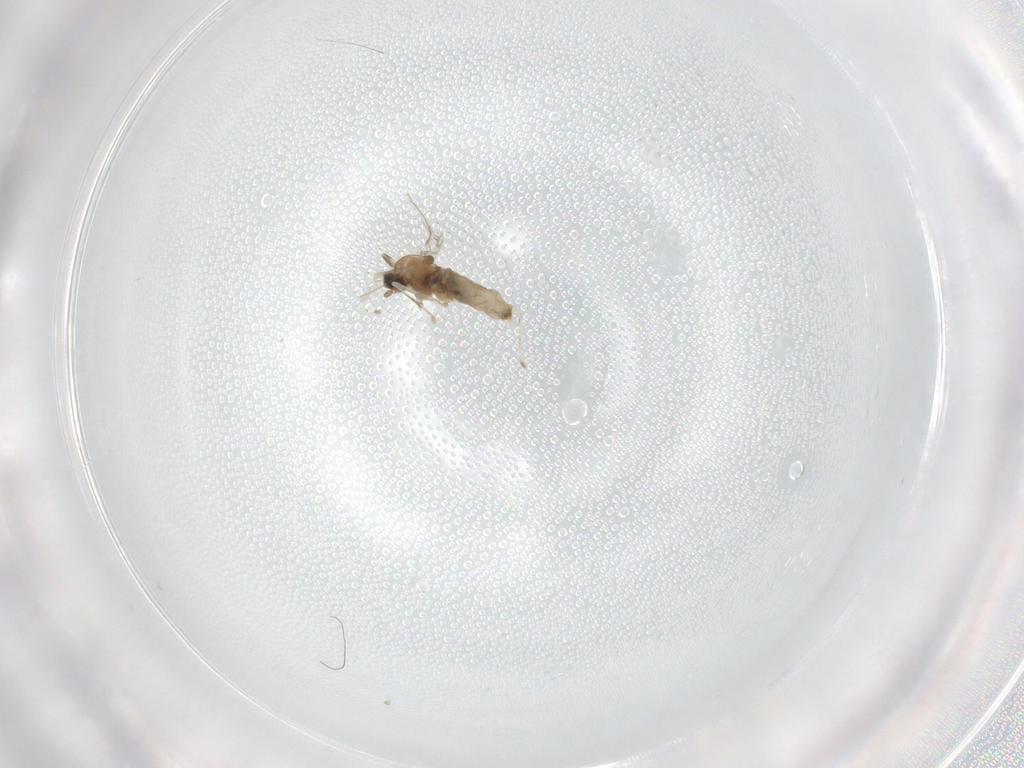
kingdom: Animalia
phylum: Arthropoda
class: Insecta
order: Diptera
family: Cecidomyiidae
